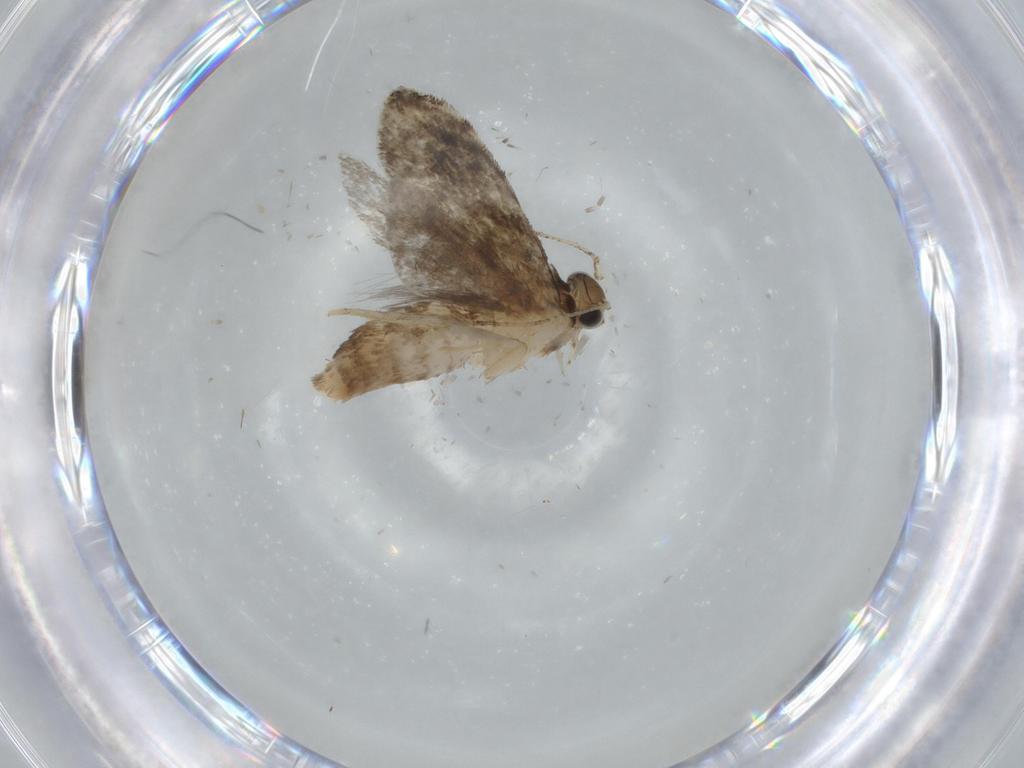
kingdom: Animalia
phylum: Arthropoda
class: Insecta
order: Lepidoptera
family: Tineidae
